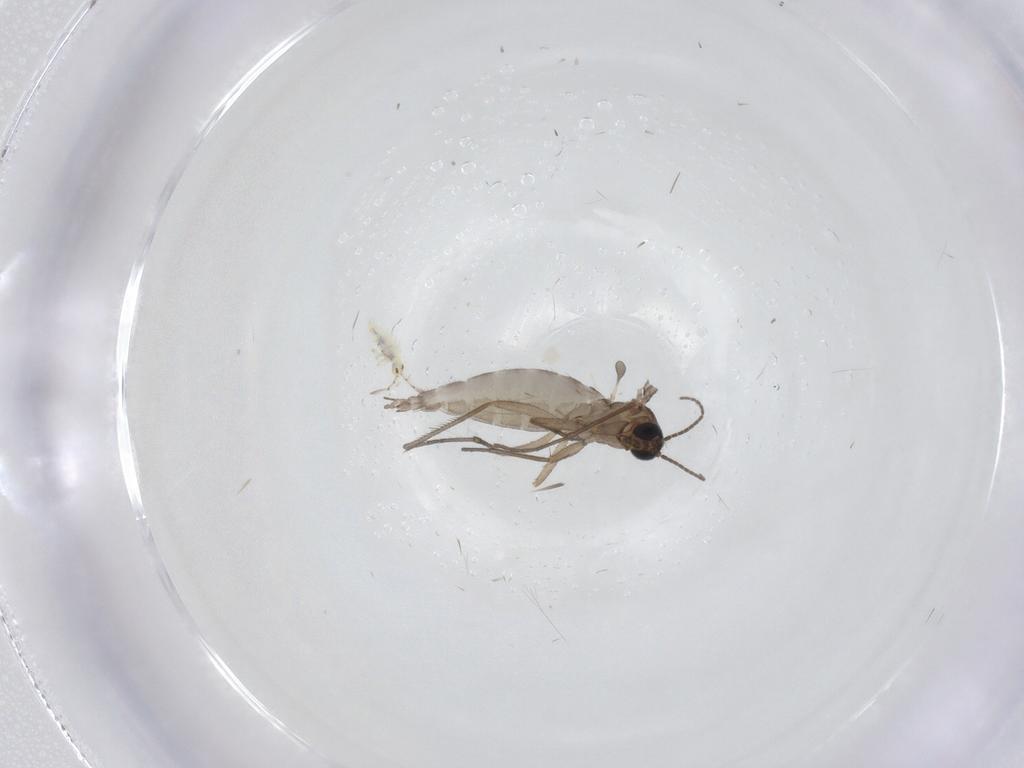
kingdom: Animalia
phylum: Arthropoda
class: Insecta
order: Diptera
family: Sciaridae
